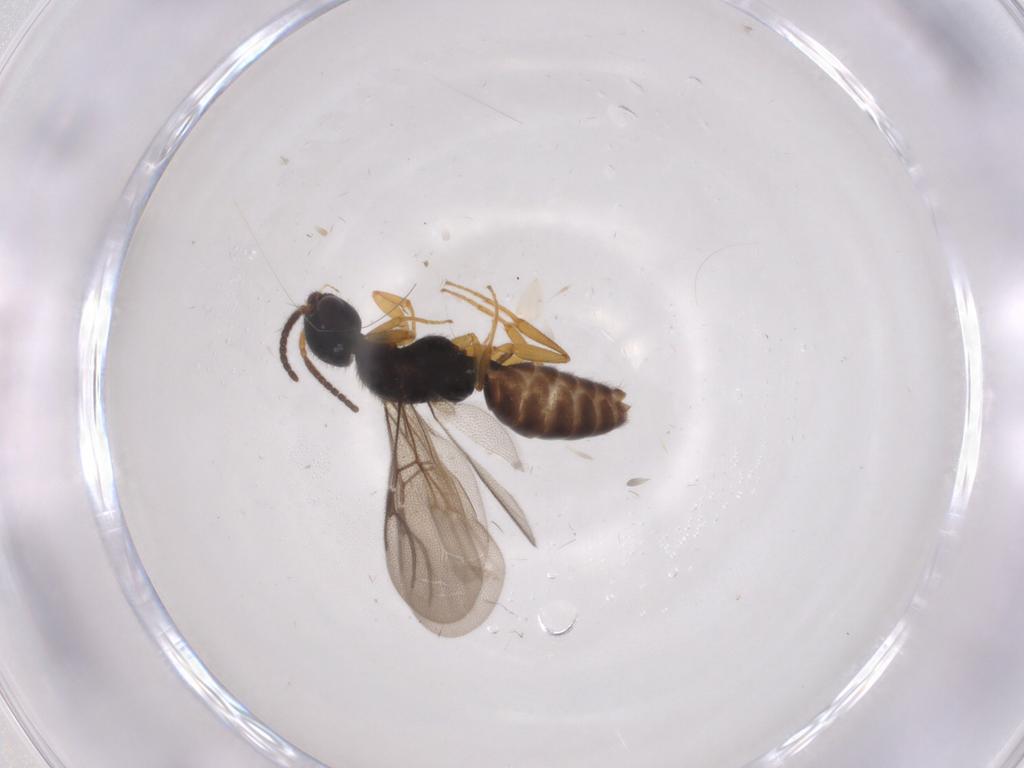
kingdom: Animalia
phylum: Arthropoda
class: Insecta
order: Hymenoptera
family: Bethylidae
